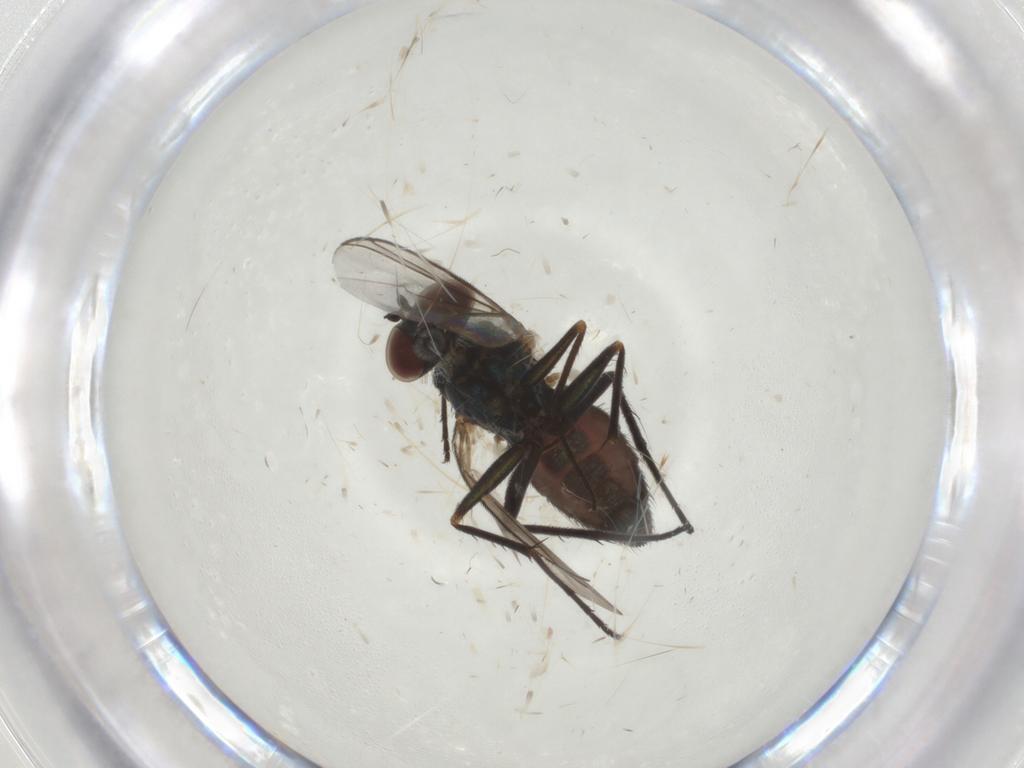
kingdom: Animalia
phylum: Arthropoda
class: Insecta
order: Diptera
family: Dolichopodidae
